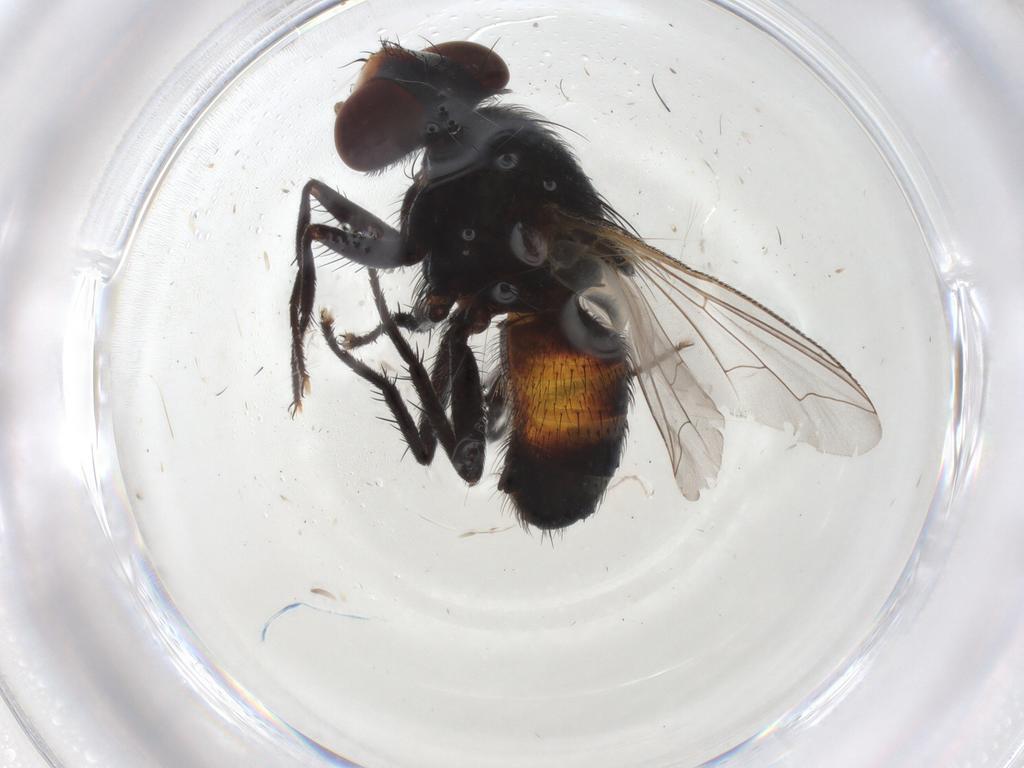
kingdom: Animalia
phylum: Arthropoda
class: Insecta
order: Diptera
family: Sarcophagidae
